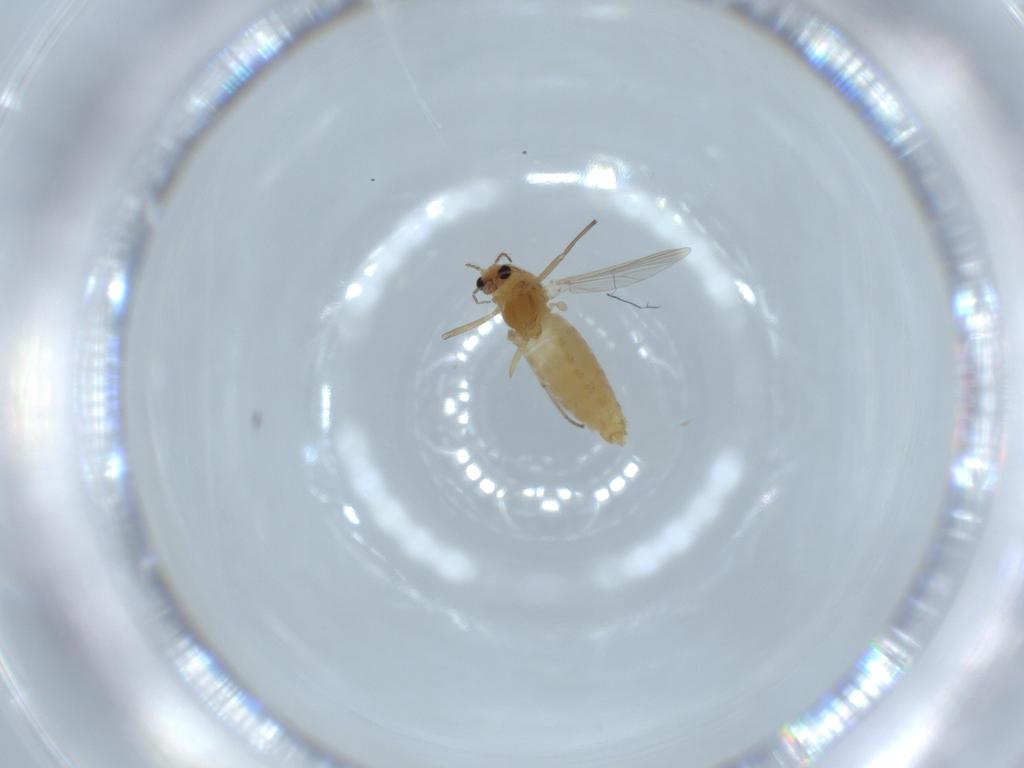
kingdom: Animalia
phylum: Arthropoda
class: Insecta
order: Diptera
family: Chironomidae
